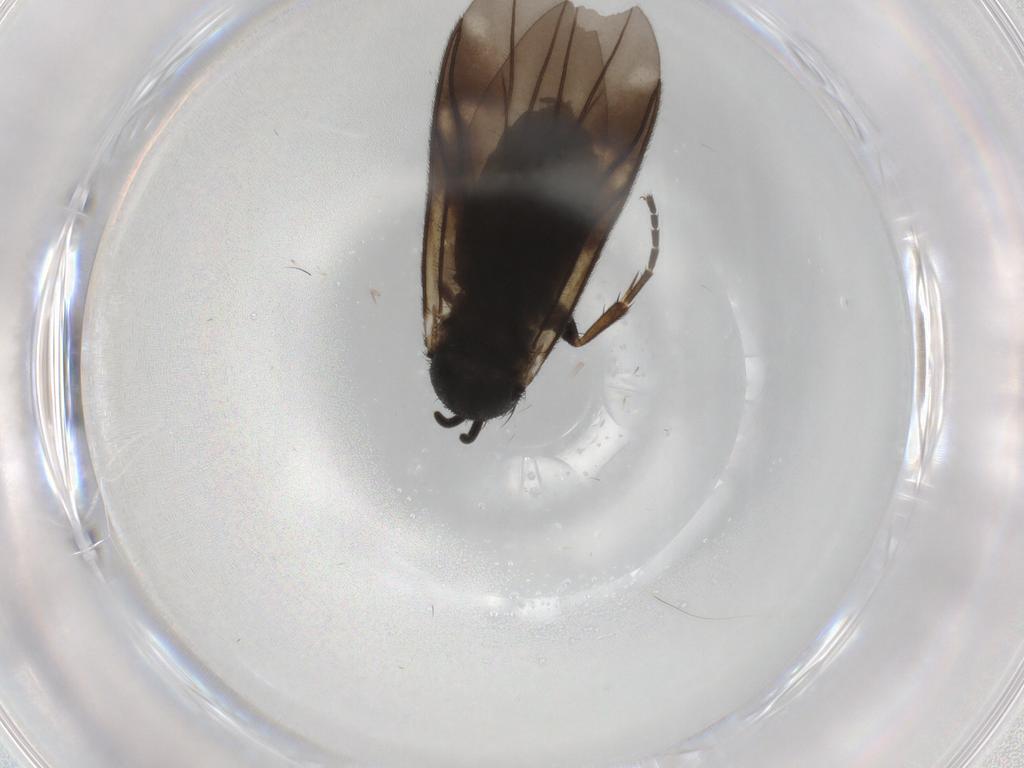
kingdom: Animalia
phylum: Arthropoda
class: Insecta
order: Diptera
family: Mycetophilidae
